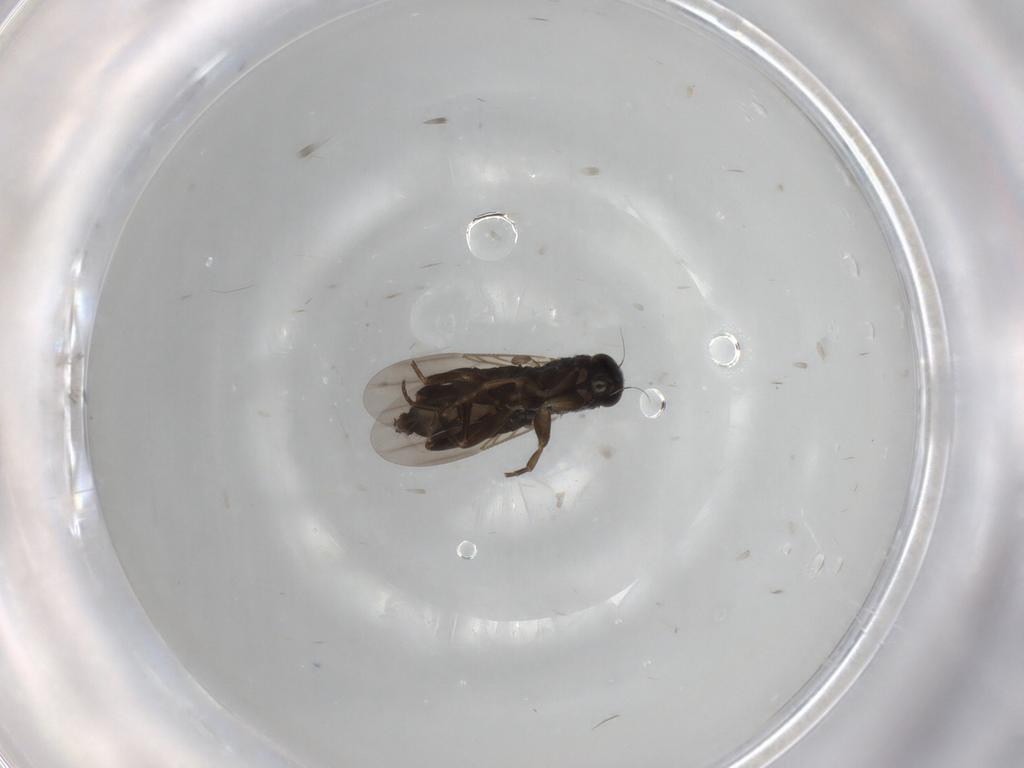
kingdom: Animalia
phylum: Arthropoda
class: Insecta
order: Diptera
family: Phoridae
